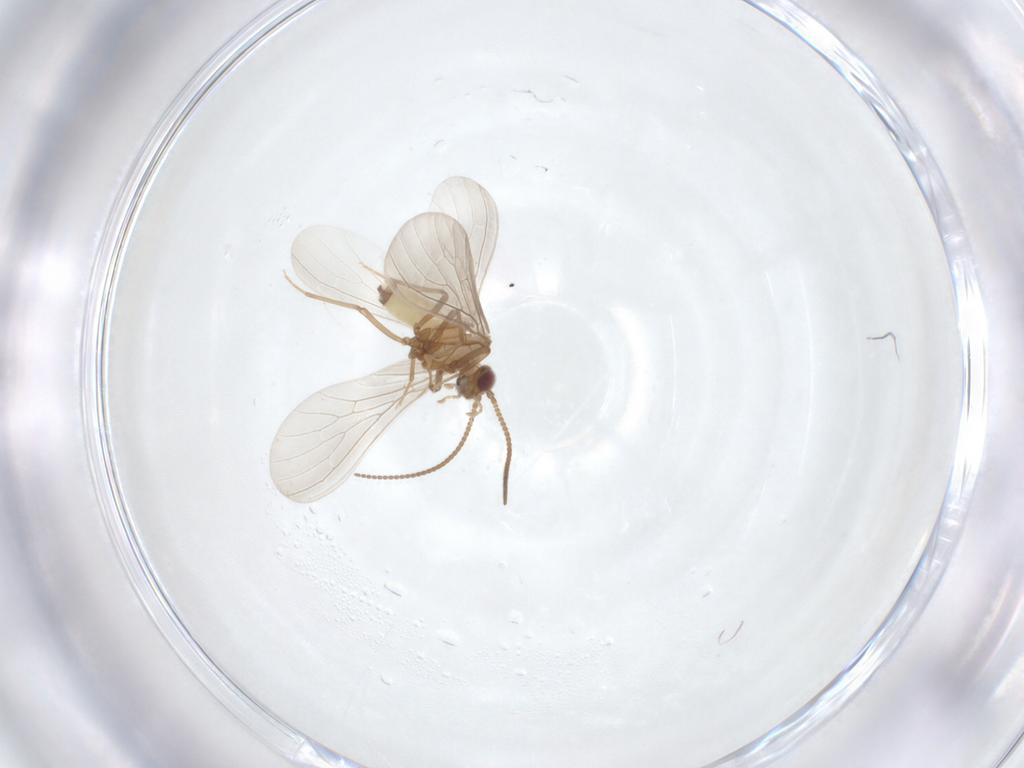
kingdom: Animalia
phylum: Arthropoda
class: Insecta
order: Neuroptera
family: Coniopterygidae
